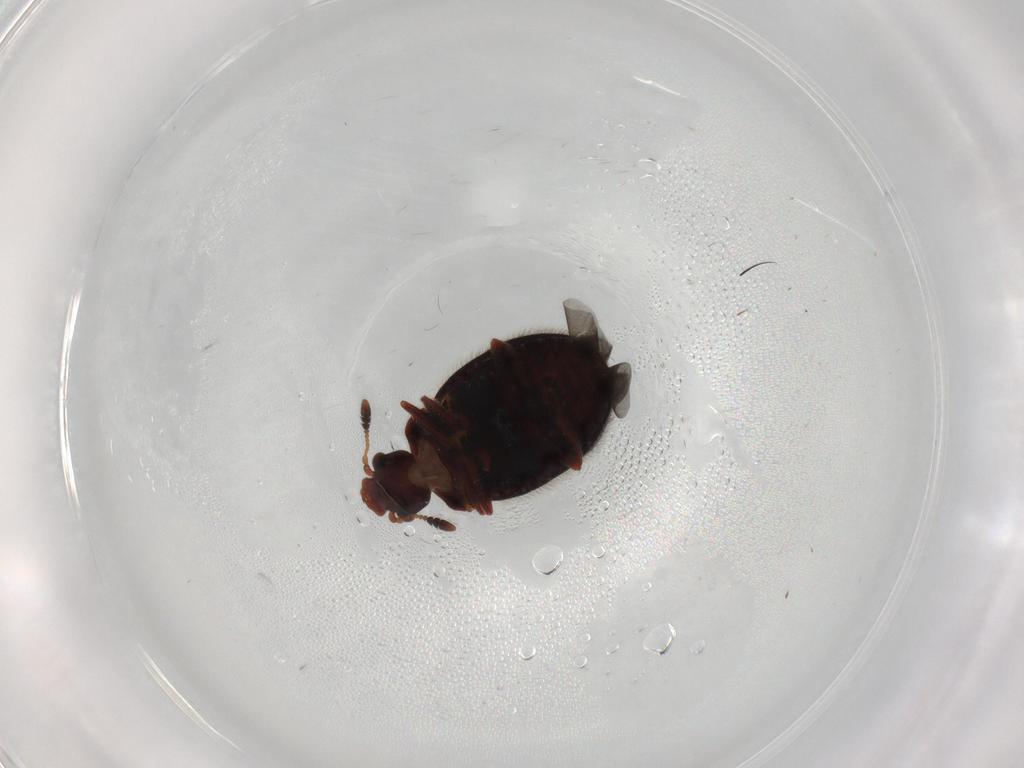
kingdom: Animalia
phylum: Arthropoda
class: Insecta
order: Coleoptera
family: Sphindidae
